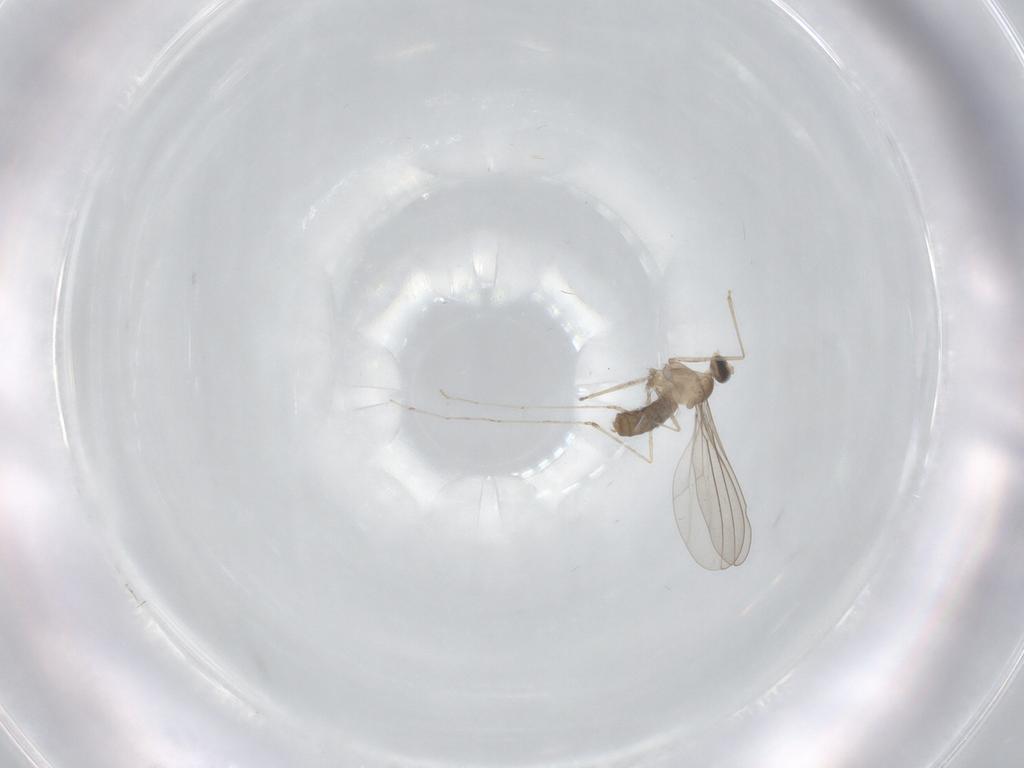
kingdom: Animalia
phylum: Arthropoda
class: Insecta
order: Diptera
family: Cecidomyiidae
